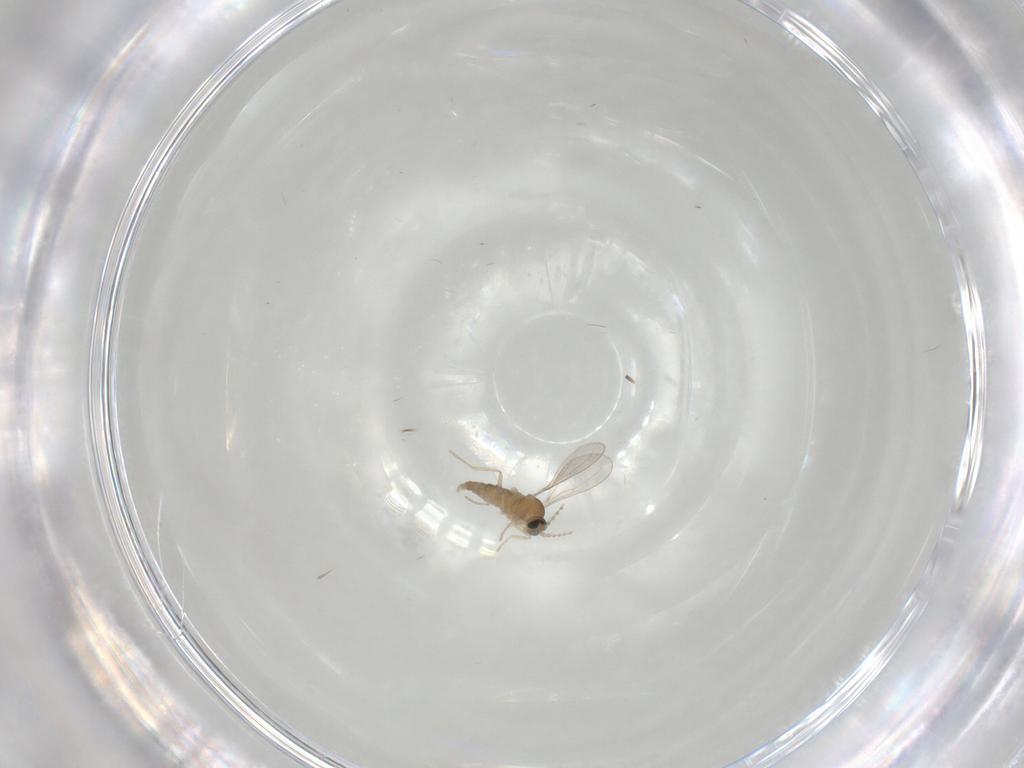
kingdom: Animalia
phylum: Arthropoda
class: Insecta
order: Diptera
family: Cecidomyiidae
